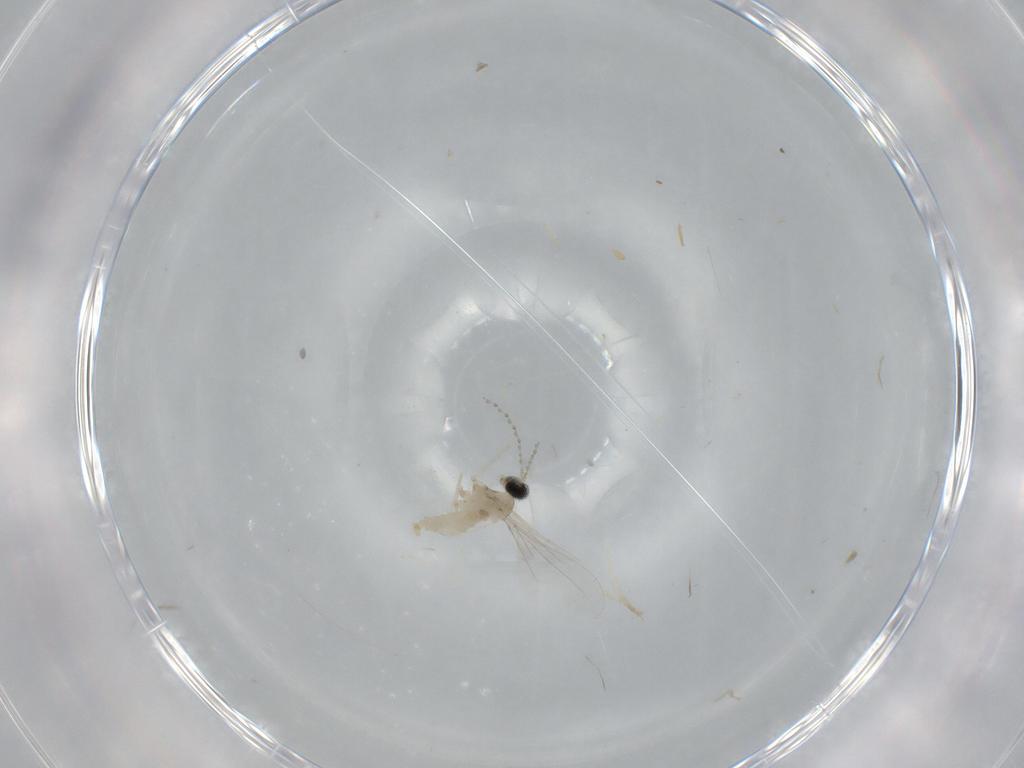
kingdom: Animalia
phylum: Arthropoda
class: Insecta
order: Diptera
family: Cecidomyiidae
